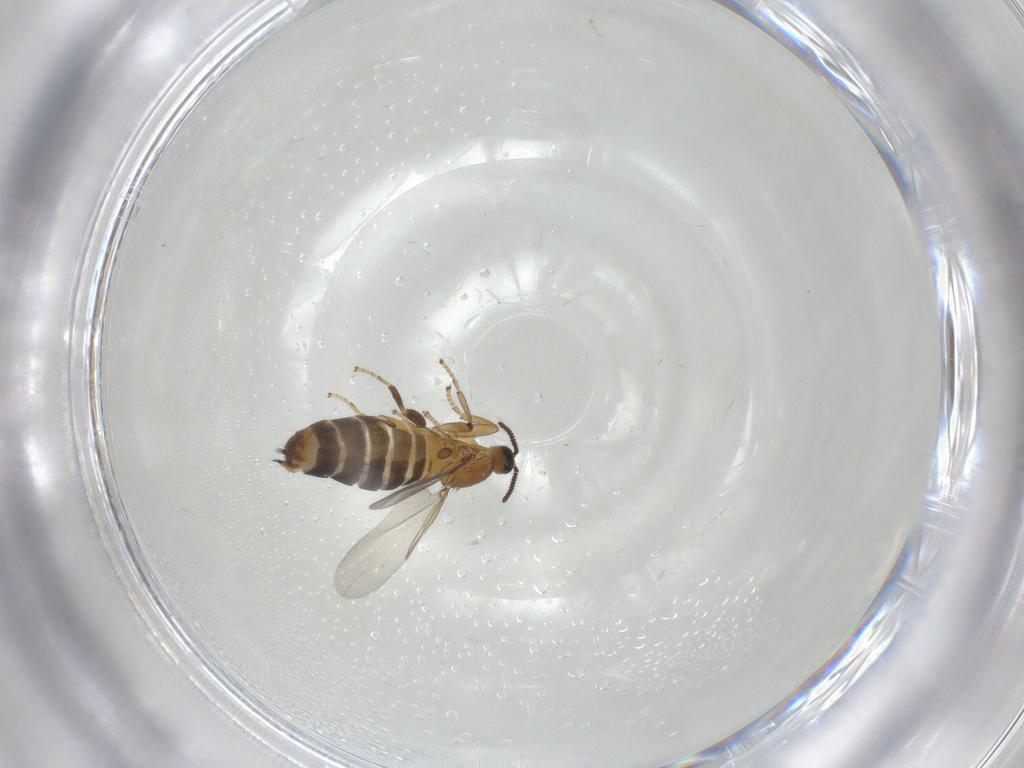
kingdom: Animalia
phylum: Arthropoda
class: Insecta
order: Diptera
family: Scatopsidae
